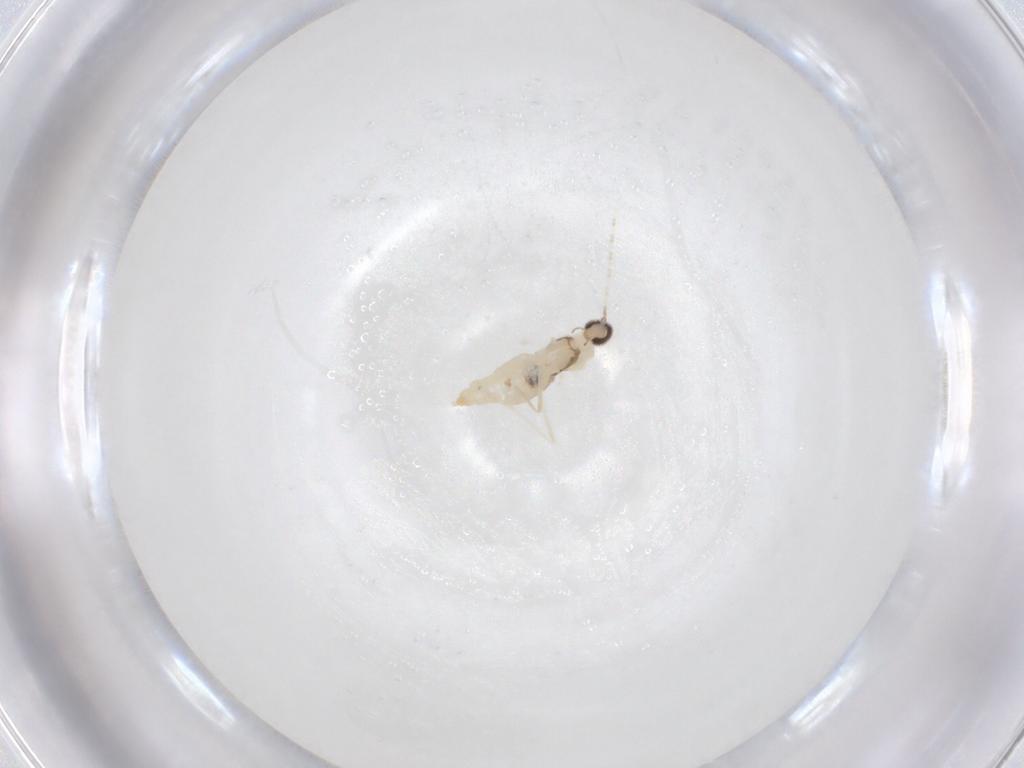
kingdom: Animalia
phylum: Arthropoda
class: Insecta
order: Diptera
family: Cecidomyiidae
